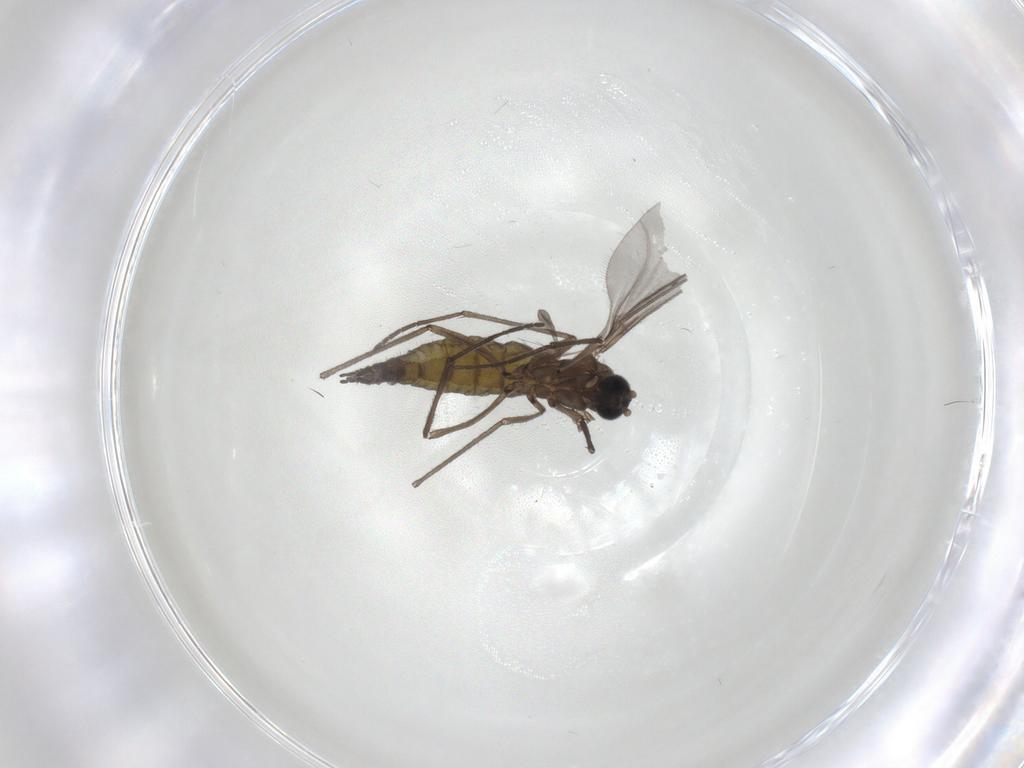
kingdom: Animalia
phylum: Arthropoda
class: Insecta
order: Diptera
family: Sciaridae
